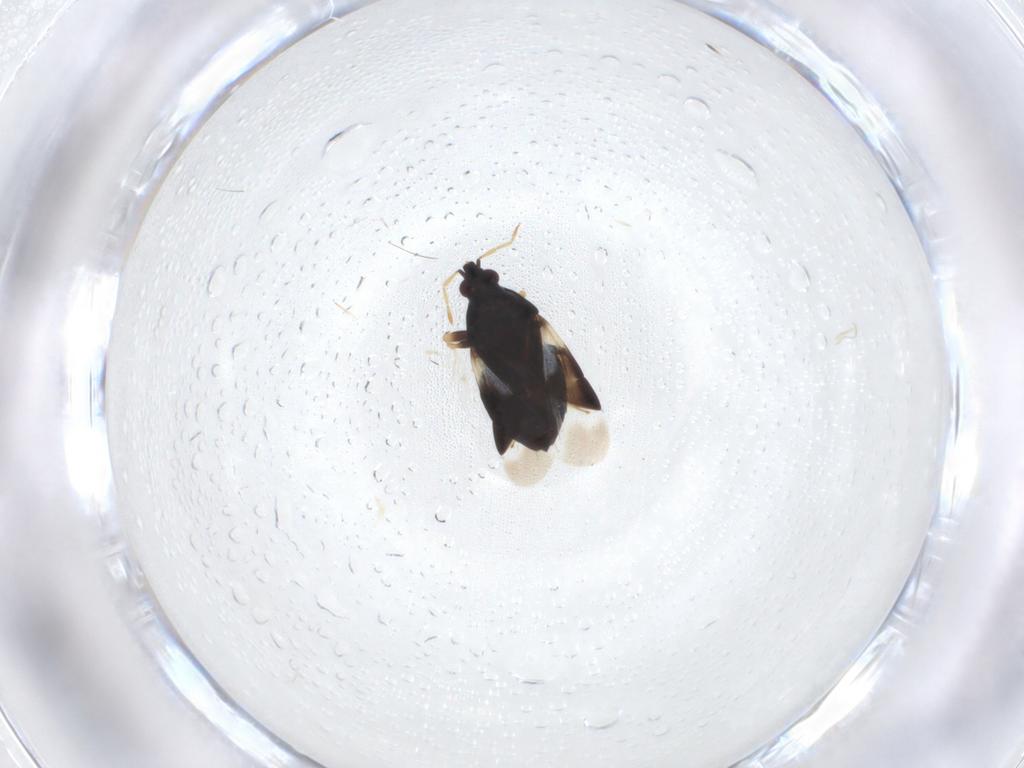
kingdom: Animalia
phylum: Arthropoda
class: Insecta
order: Hemiptera
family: Anthocoridae
